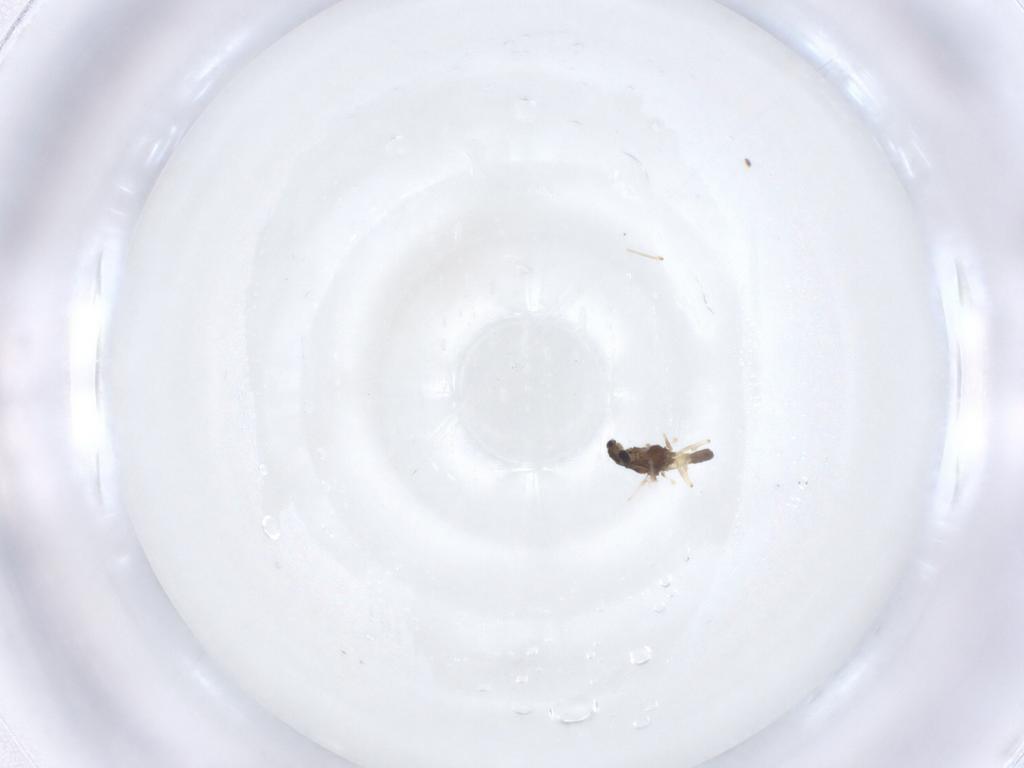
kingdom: Animalia
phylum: Arthropoda
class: Insecta
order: Diptera
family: Chironomidae
